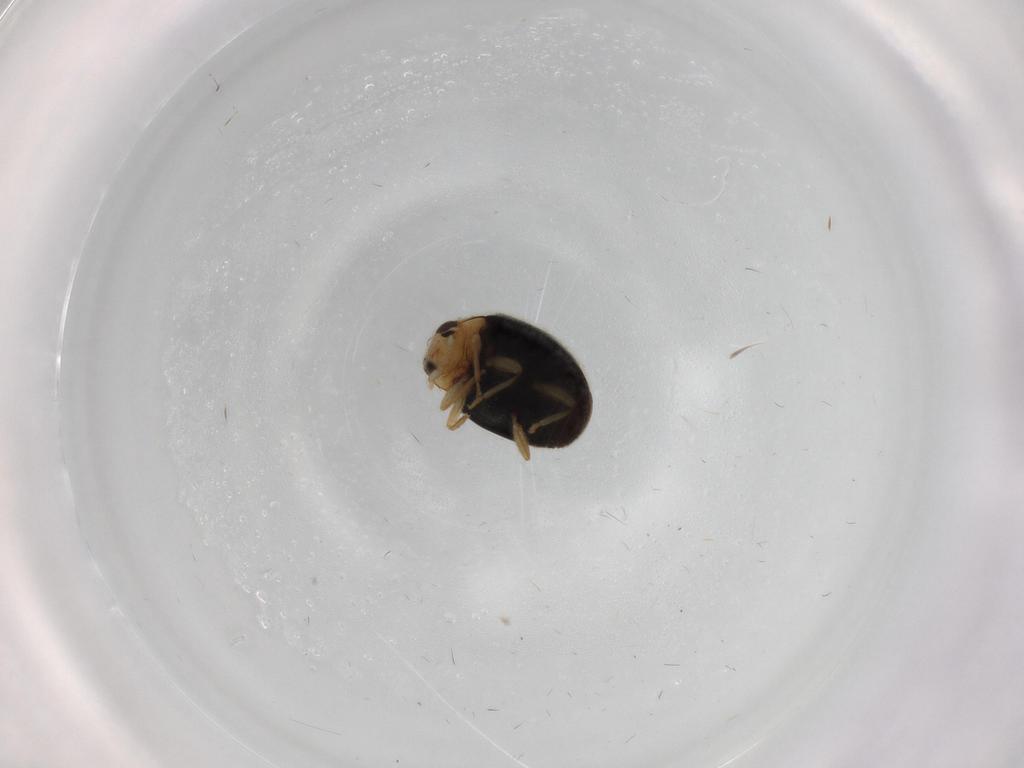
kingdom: Animalia
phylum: Arthropoda
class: Insecta
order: Coleoptera
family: Coccinellidae
